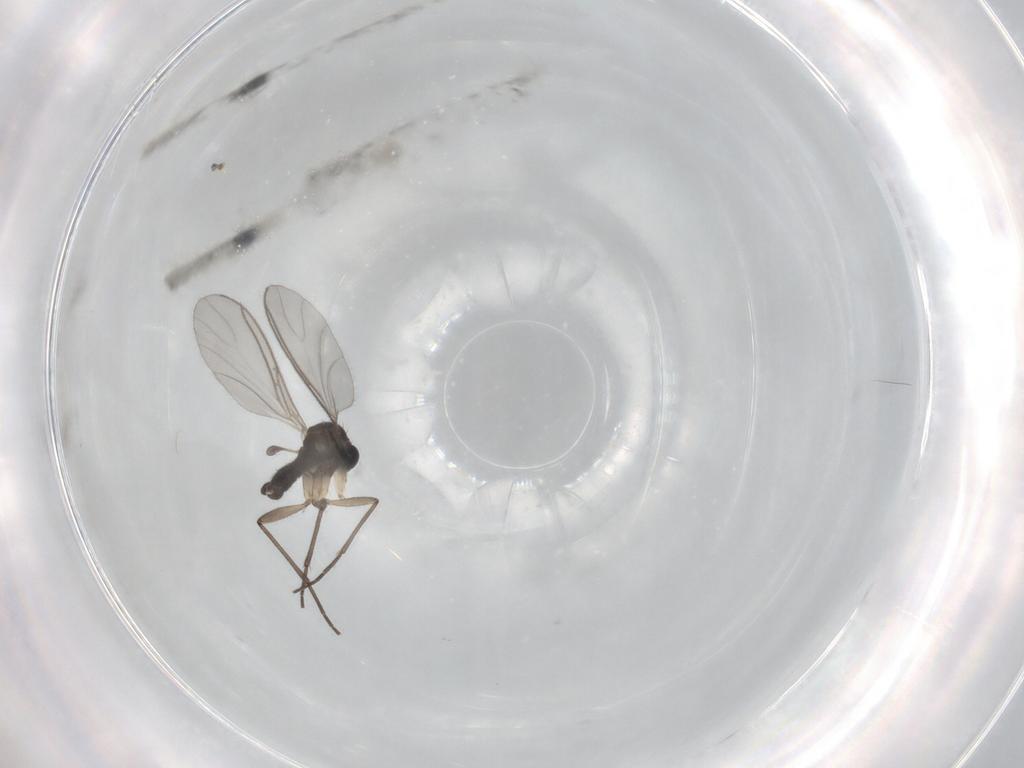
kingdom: Animalia
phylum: Arthropoda
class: Insecta
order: Diptera
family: Sciaridae
